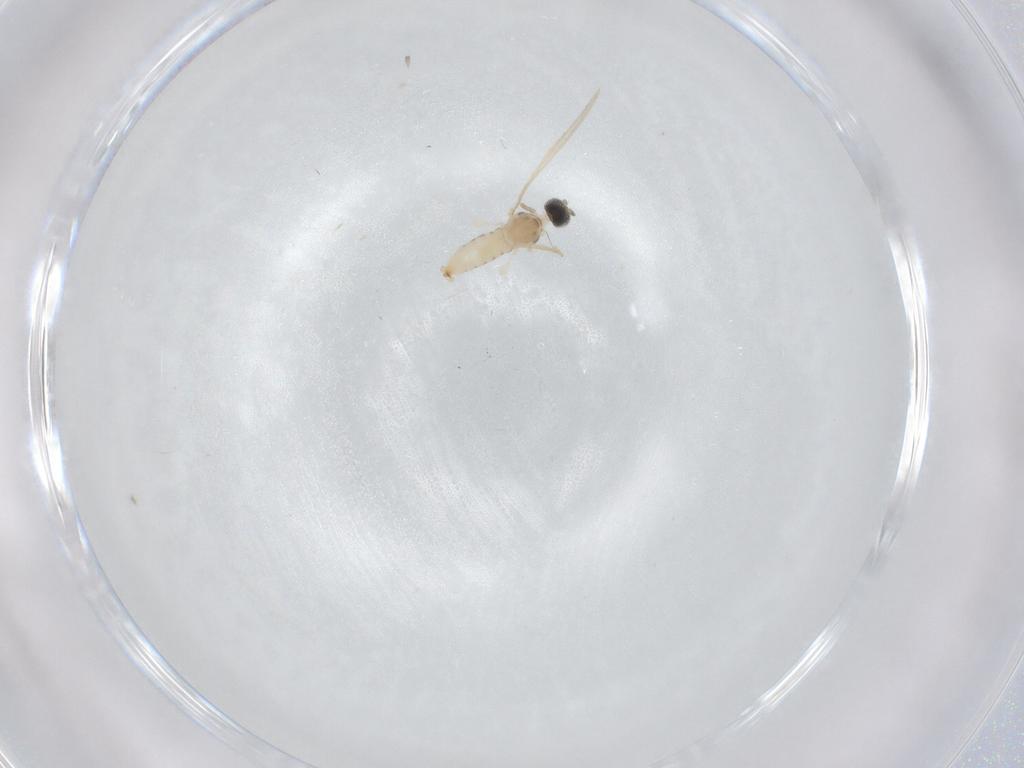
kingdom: Animalia
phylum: Arthropoda
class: Insecta
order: Diptera
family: Cecidomyiidae
